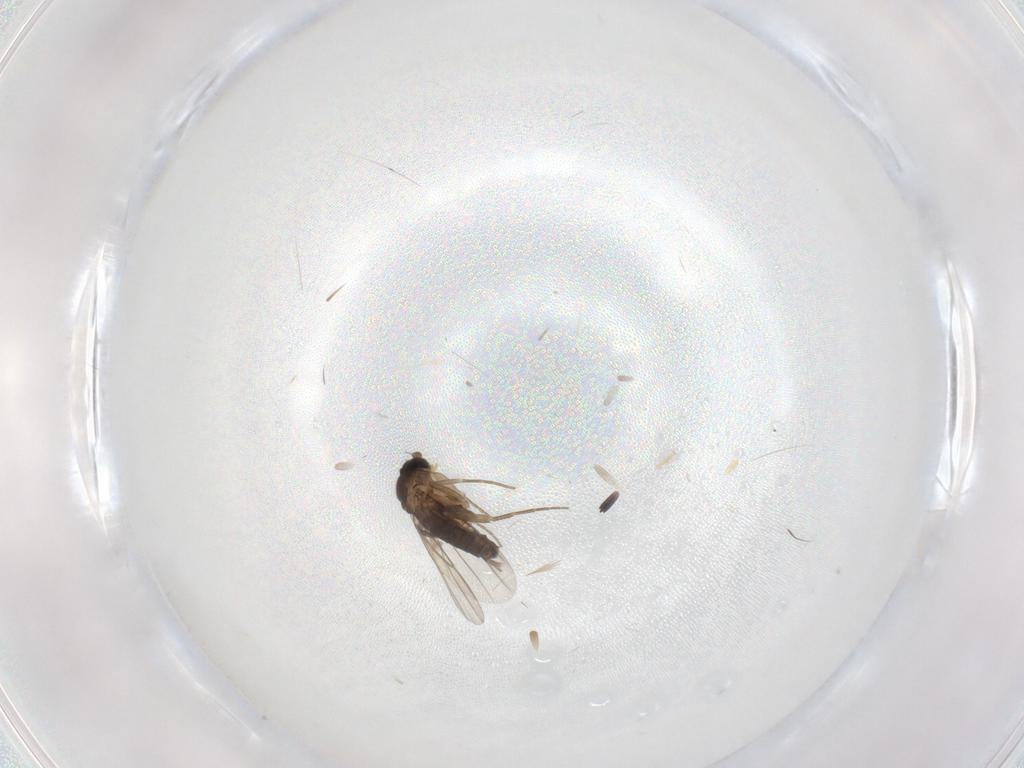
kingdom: Animalia
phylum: Arthropoda
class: Insecta
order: Diptera
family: Phoridae
